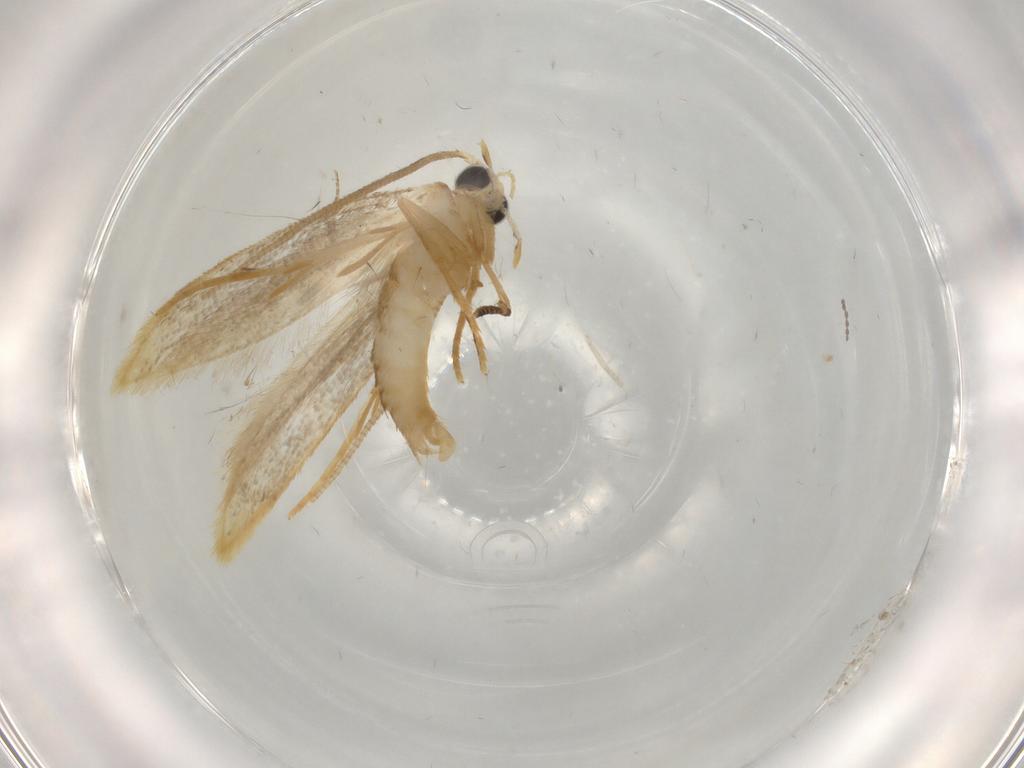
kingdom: Animalia
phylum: Arthropoda
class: Insecta
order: Lepidoptera
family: Tineidae
